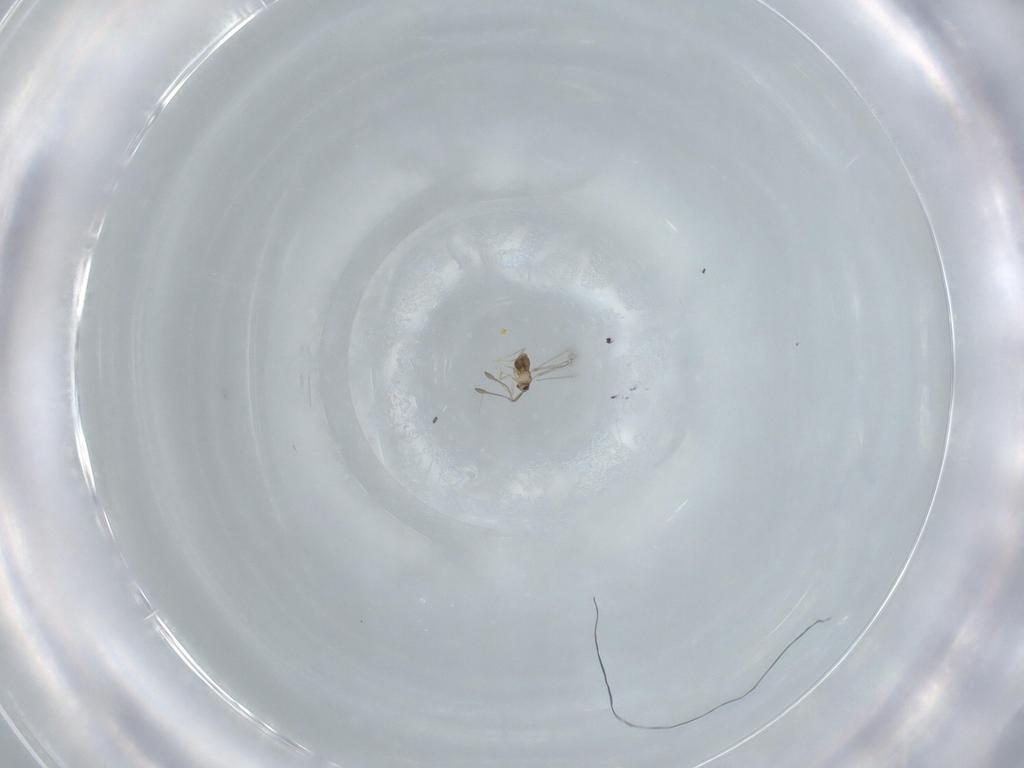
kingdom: Animalia
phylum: Arthropoda
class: Insecta
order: Hymenoptera
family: Mymaridae
